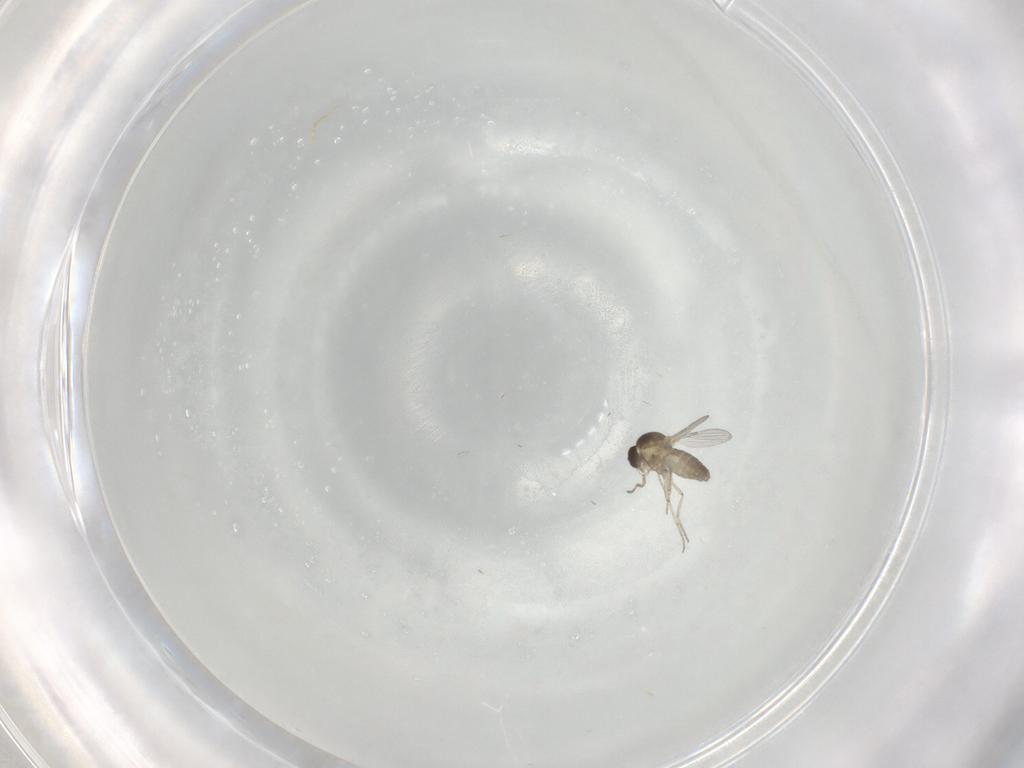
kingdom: Animalia
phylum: Arthropoda
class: Insecta
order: Diptera
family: Ceratopogonidae
